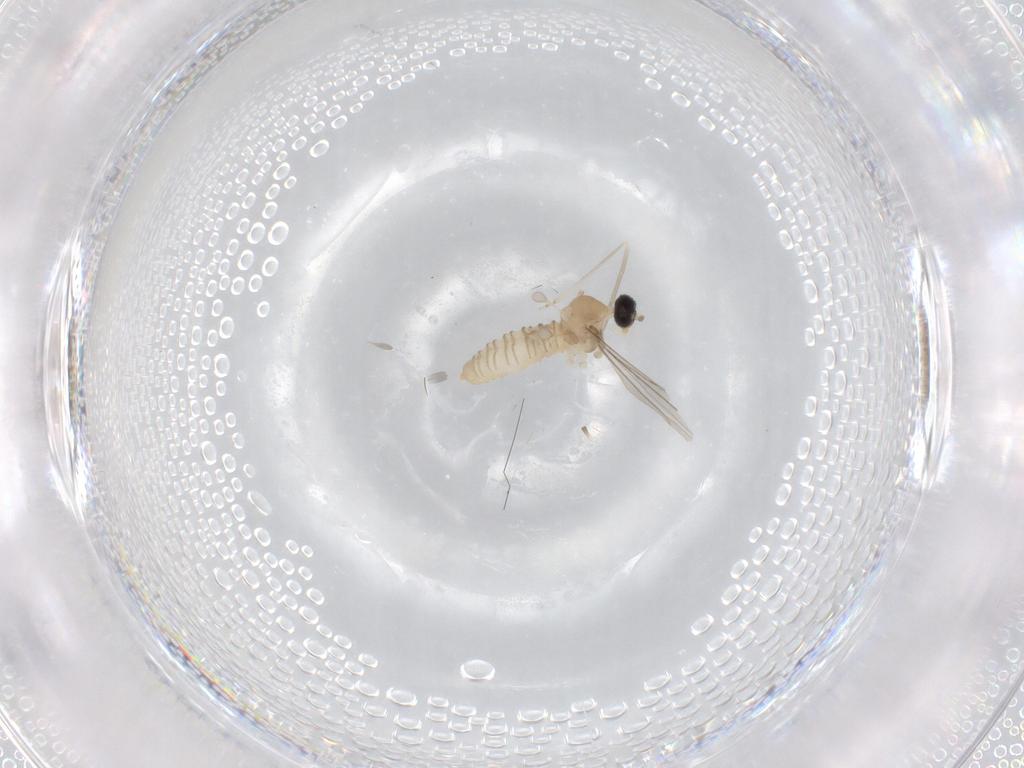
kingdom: Animalia
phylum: Arthropoda
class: Insecta
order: Diptera
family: Cecidomyiidae
